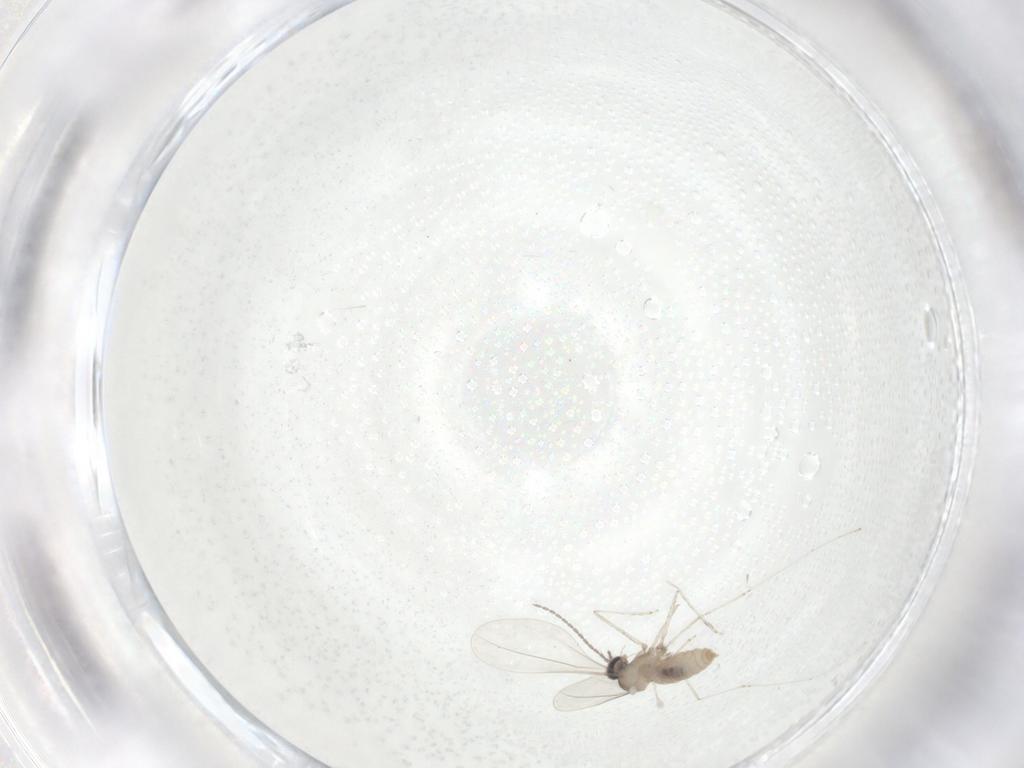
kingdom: Animalia
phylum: Arthropoda
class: Insecta
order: Diptera
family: Cecidomyiidae
